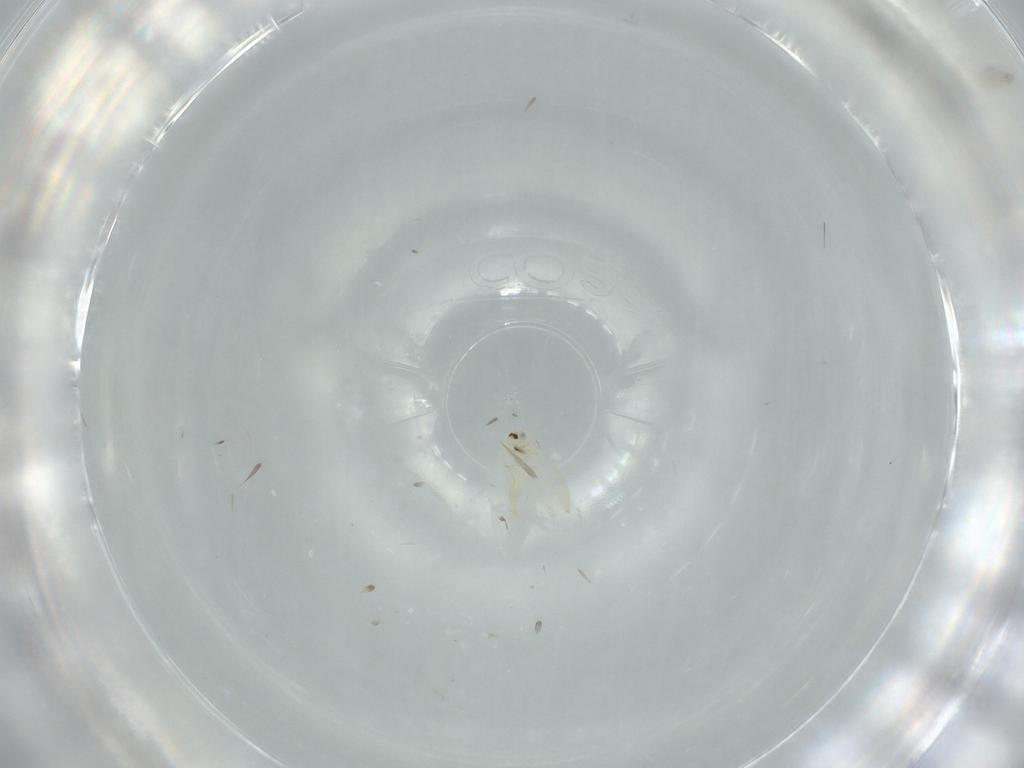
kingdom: Animalia
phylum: Arthropoda
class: Insecta
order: Hemiptera
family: Aleyrodidae
